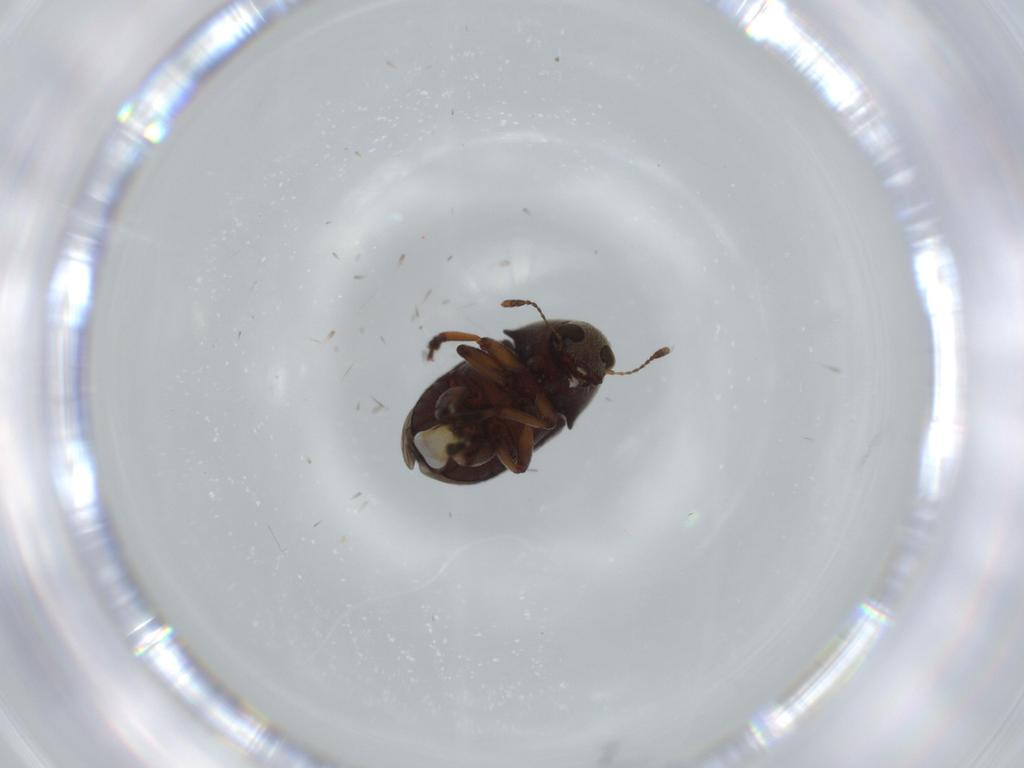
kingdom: Animalia
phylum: Arthropoda
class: Insecta
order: Coleoptera
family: Anthribidae
